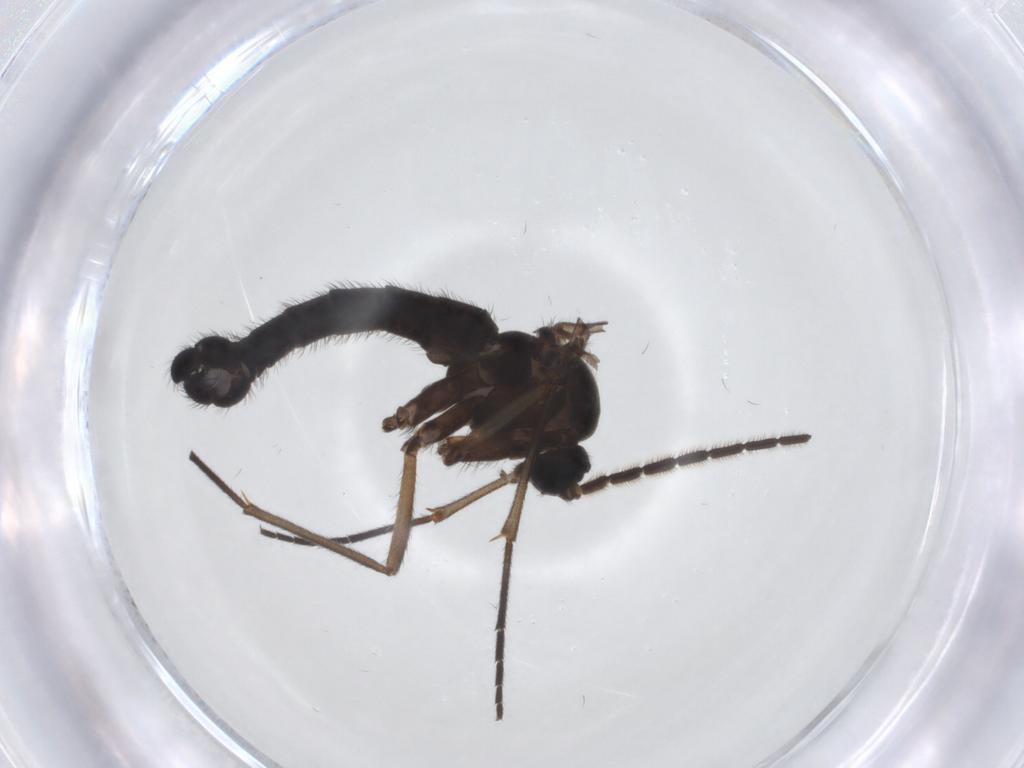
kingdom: Animalia
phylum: Arthropoda
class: Insecta
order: Diptera
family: Sciaridae
